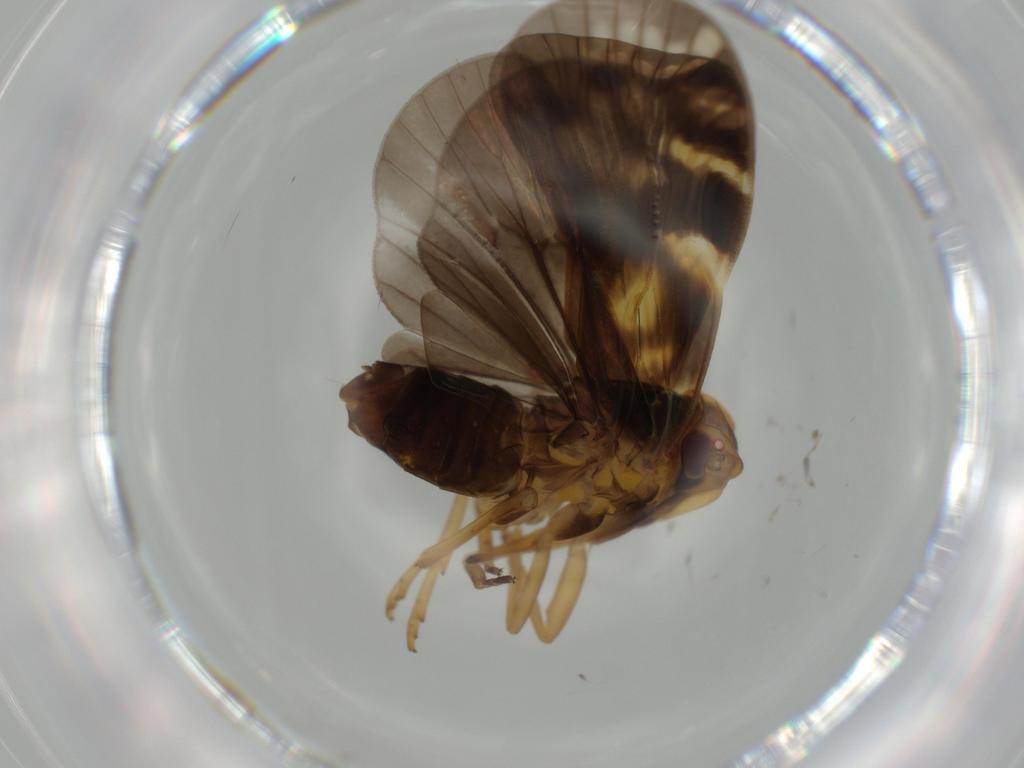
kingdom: Animalia
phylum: Arthropoda
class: Insecta
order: Hemiptera
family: Cixiidae
